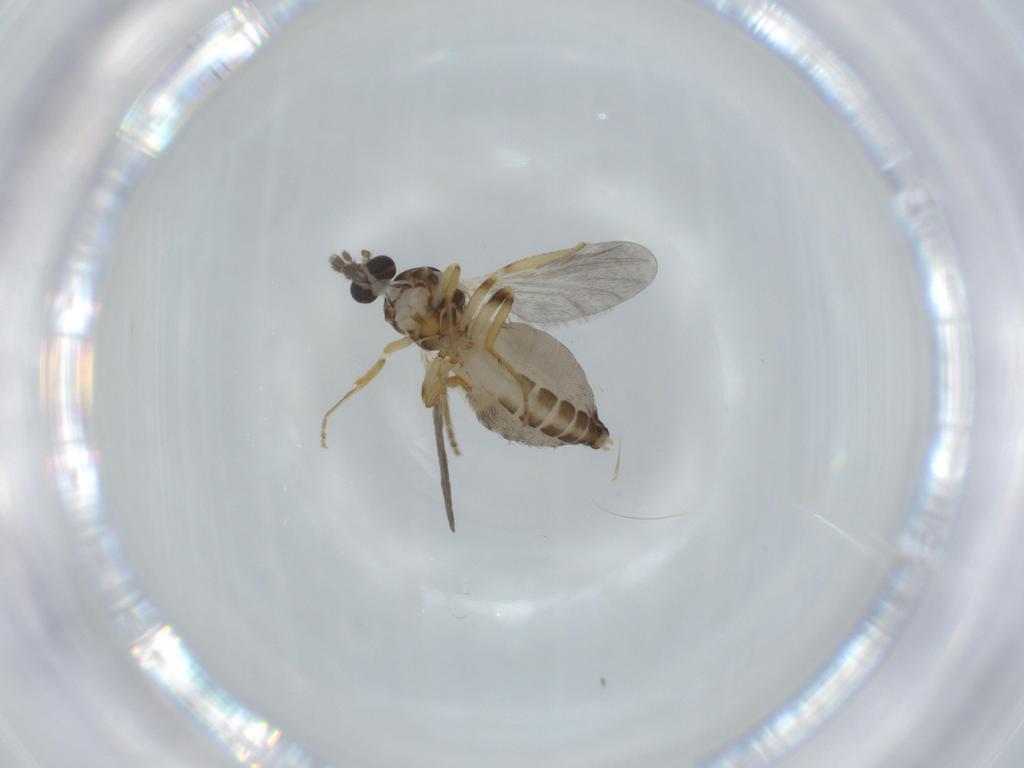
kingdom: Animalia
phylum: Arthropoda
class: Insecta
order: Diptera
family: Ceratopogonidae
